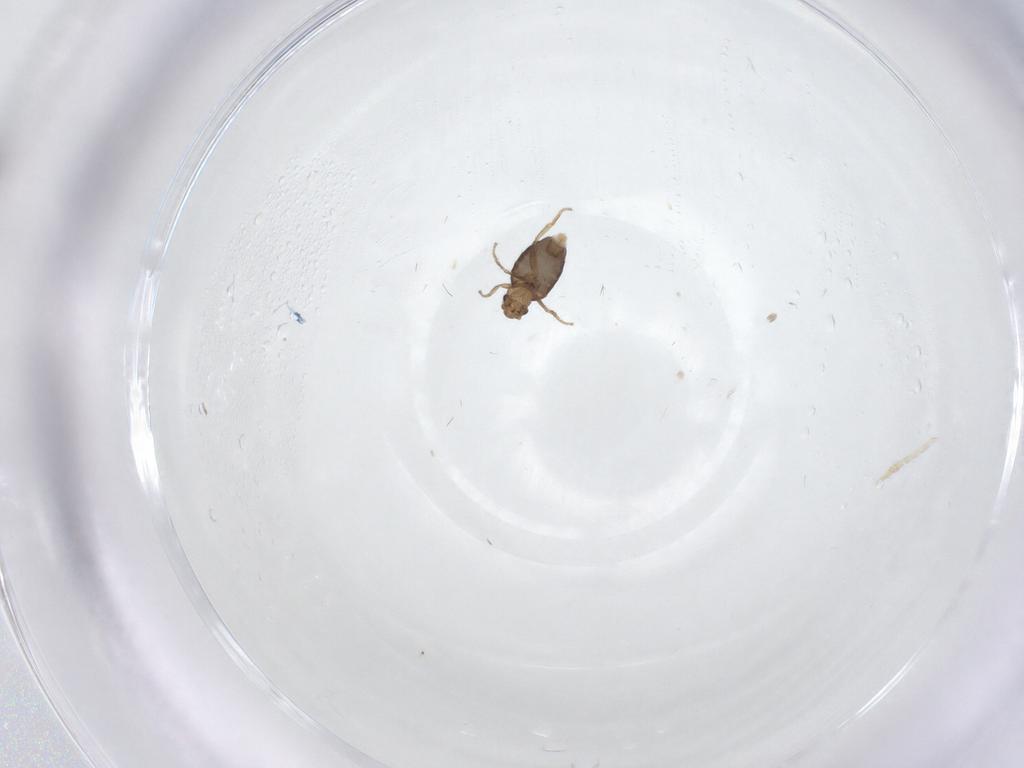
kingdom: Animalia
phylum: Arthropoda
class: Insecta
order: Diptera
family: Phoridae
